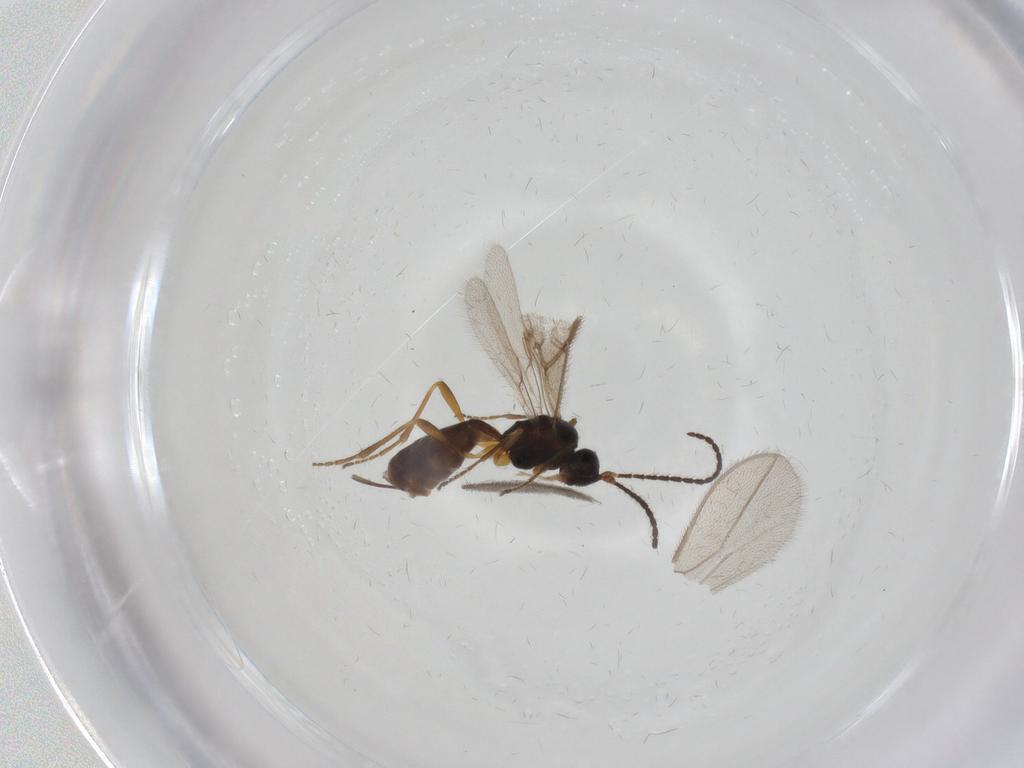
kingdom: Animalia
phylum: Arthropoda
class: Insecta
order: Hymenoptera
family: Braconidae
